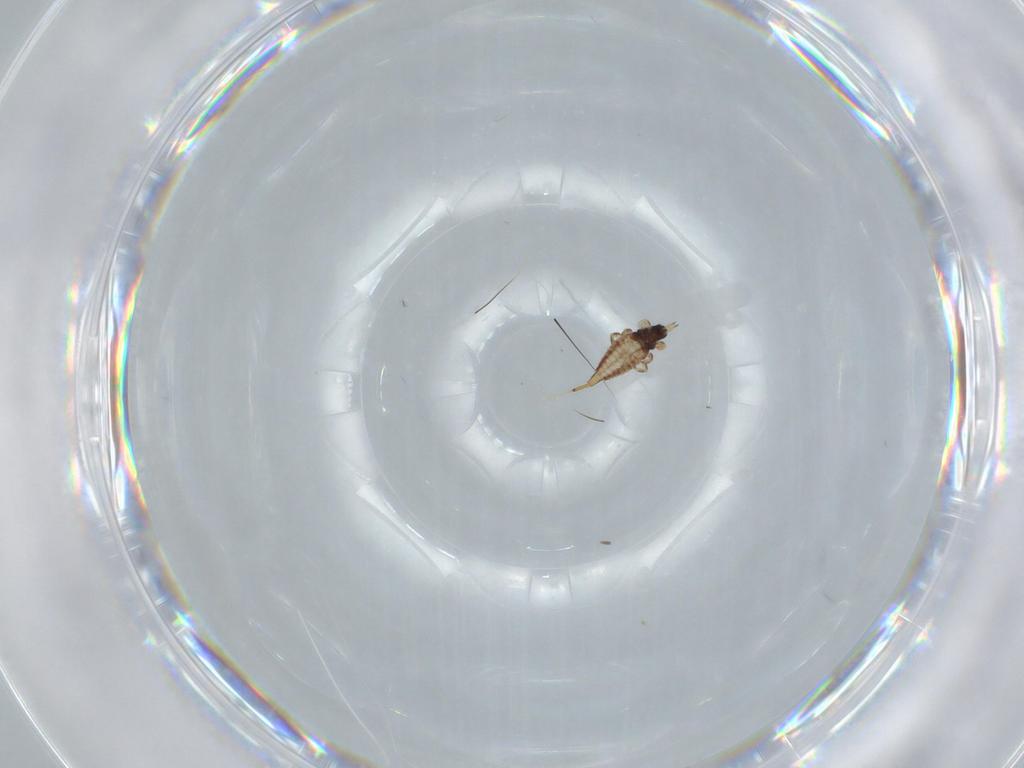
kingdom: Animalia
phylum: Arthropoda
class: Insecta
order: Thysanoptera
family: Phlaeothripidae
